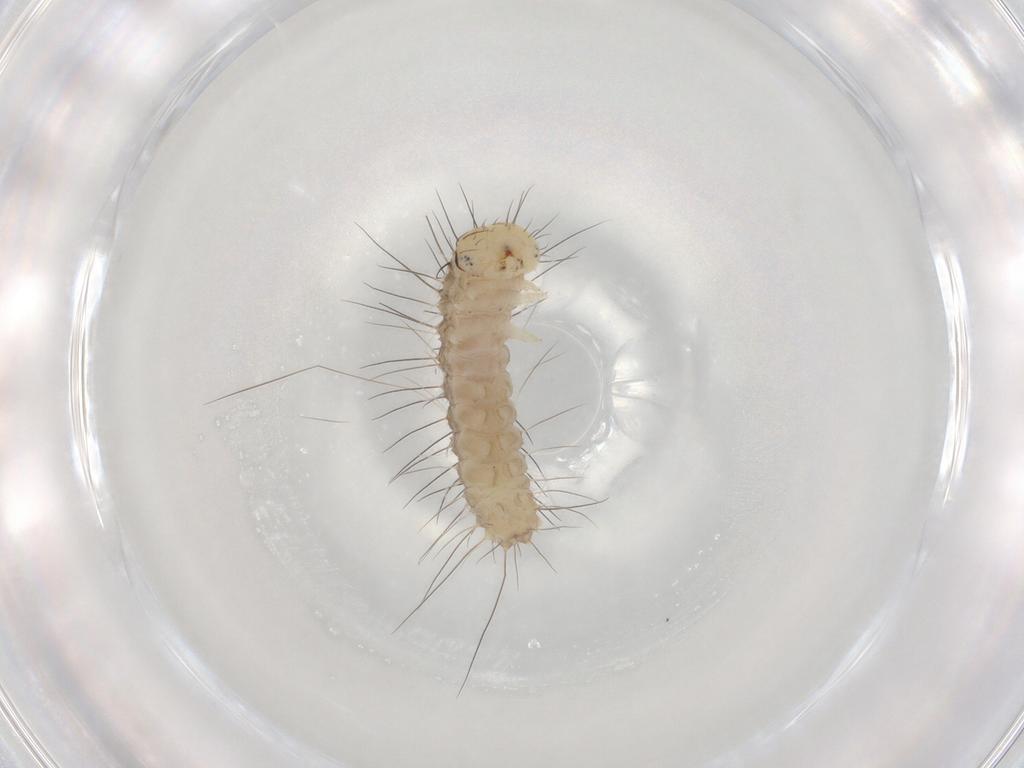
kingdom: Animalia
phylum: Arthropoda
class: Insecta
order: Lepidoptera
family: Noctuidae
